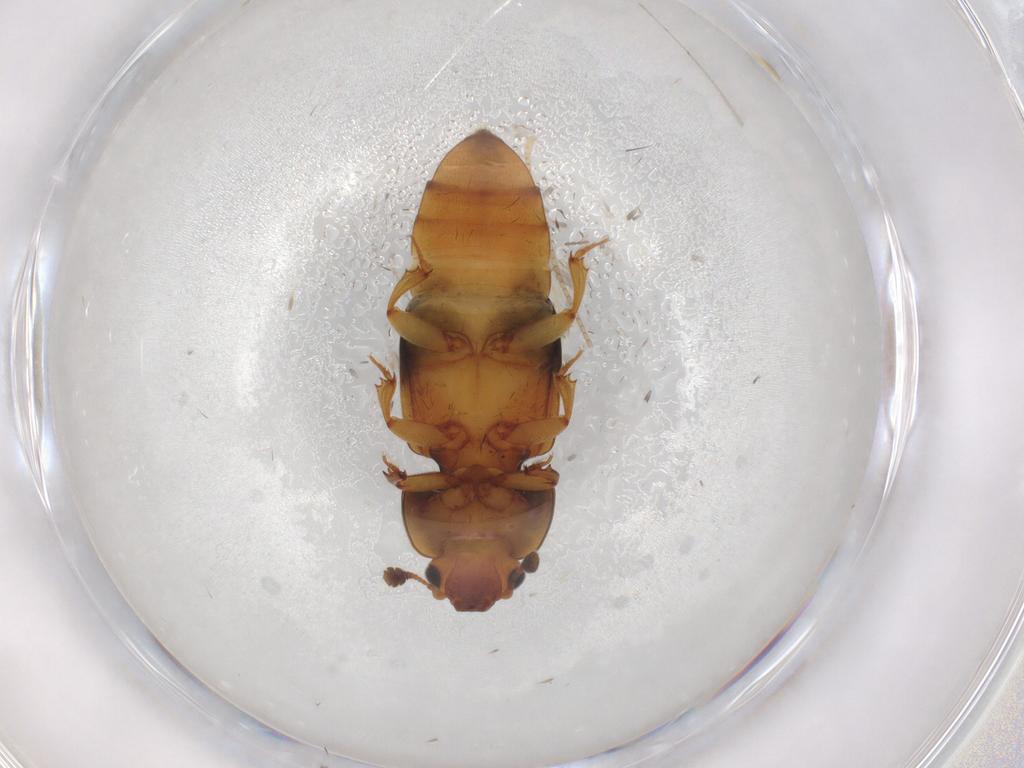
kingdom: Animalia
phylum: Arthropoda
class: Insecta
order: Coleoptera
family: Nitidulidae
